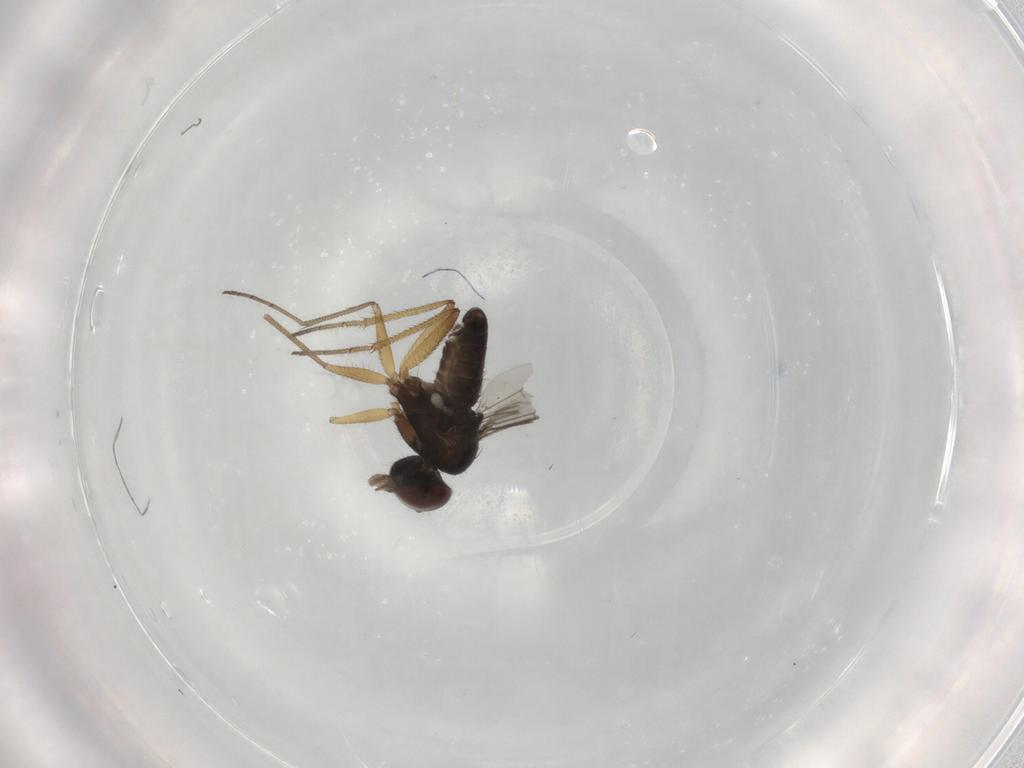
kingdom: Animalia
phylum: Arthropoda
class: Insecta
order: Diptera
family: Dolichopodidae
